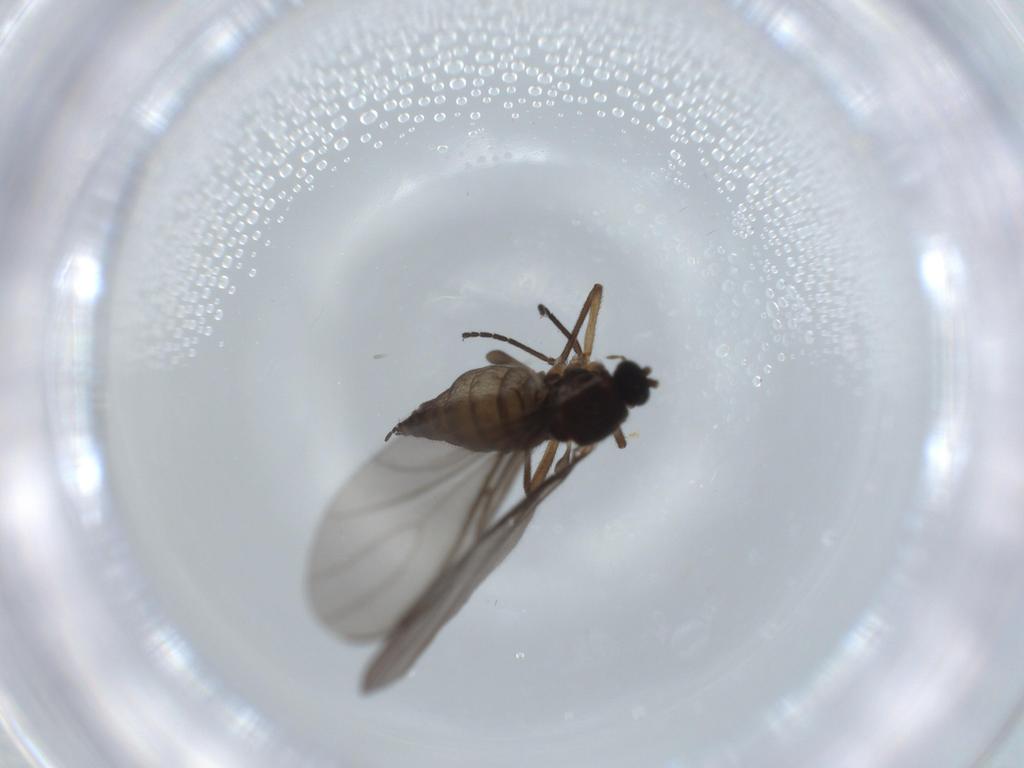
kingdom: Animalia
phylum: Arthropoda
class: Insecta
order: Diptera
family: Sciaridae
